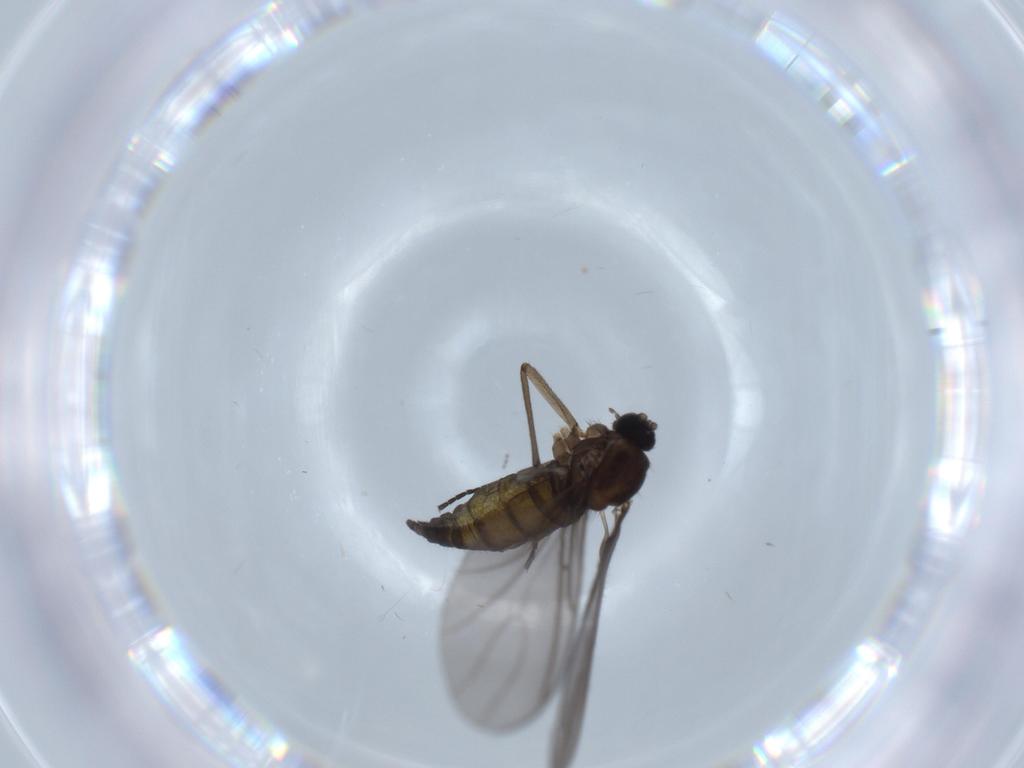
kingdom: Animalia
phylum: Arthropoda
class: Insecta
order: Diptera
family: Sciaridae
